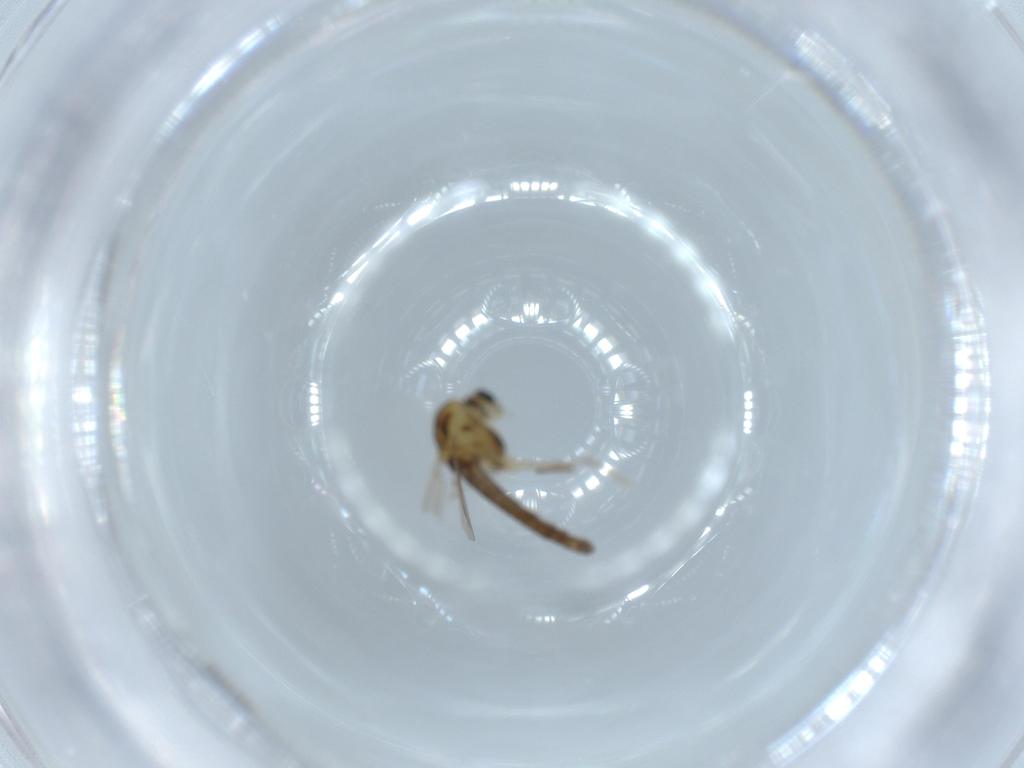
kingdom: Animalia
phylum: Arthropoda
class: Insecta
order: Diptera
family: Chironomidae
